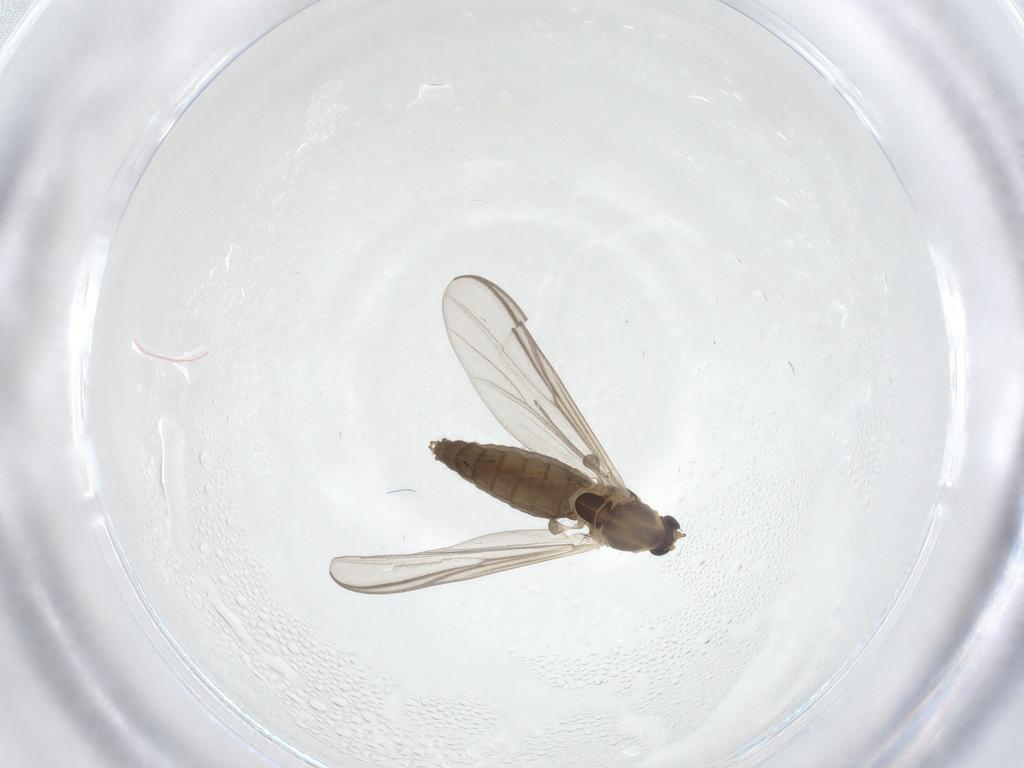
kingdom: Animalia
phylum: Arthropoda
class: Insecta
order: Diptera
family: Chironomidae
